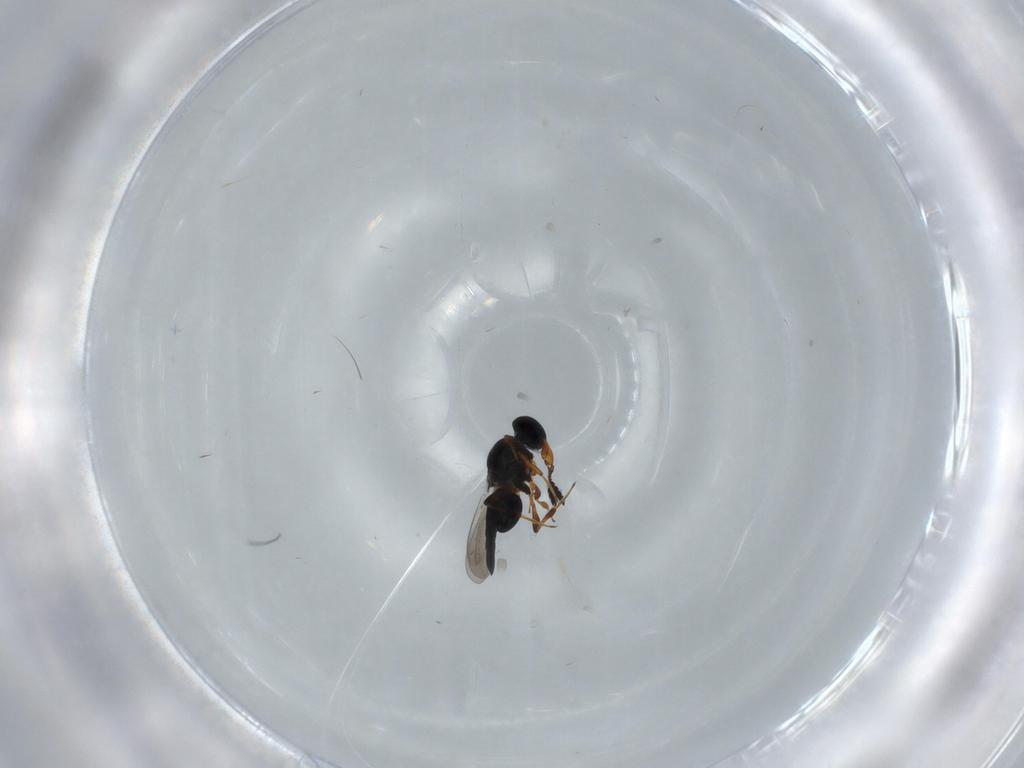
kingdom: Animalia
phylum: Arthropoda
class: Insecta
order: Hymenoptera
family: Platygastridae
